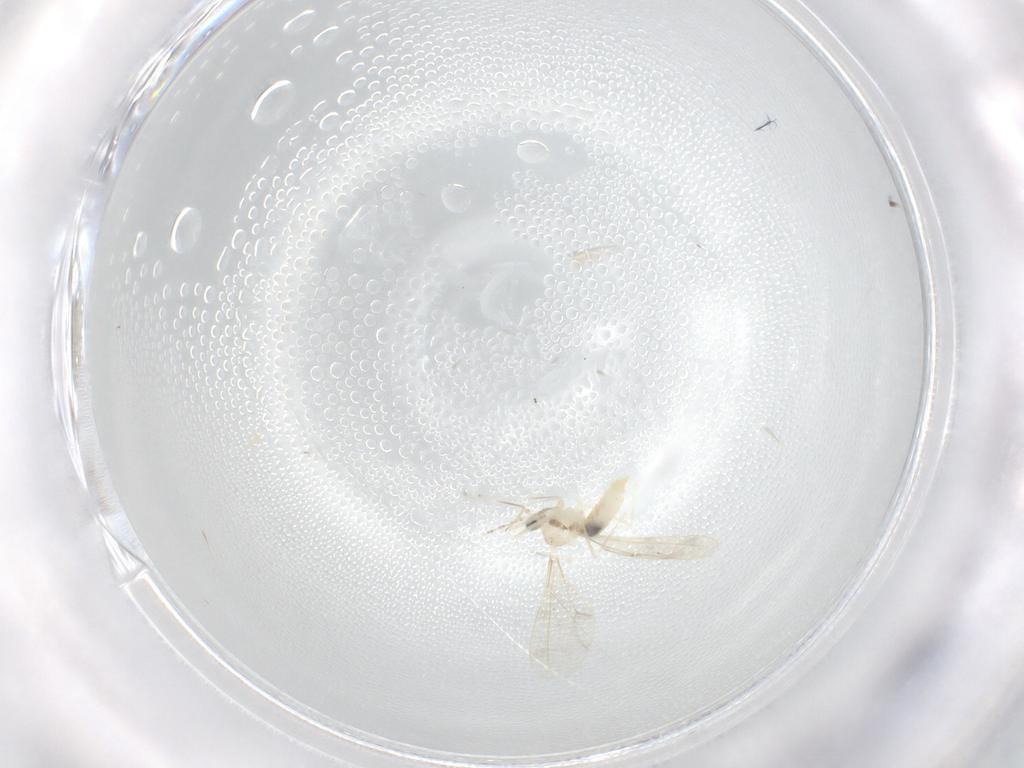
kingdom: Animalia
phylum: Arthropoda
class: Insecta
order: Diptera
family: Cecidomyiidae
